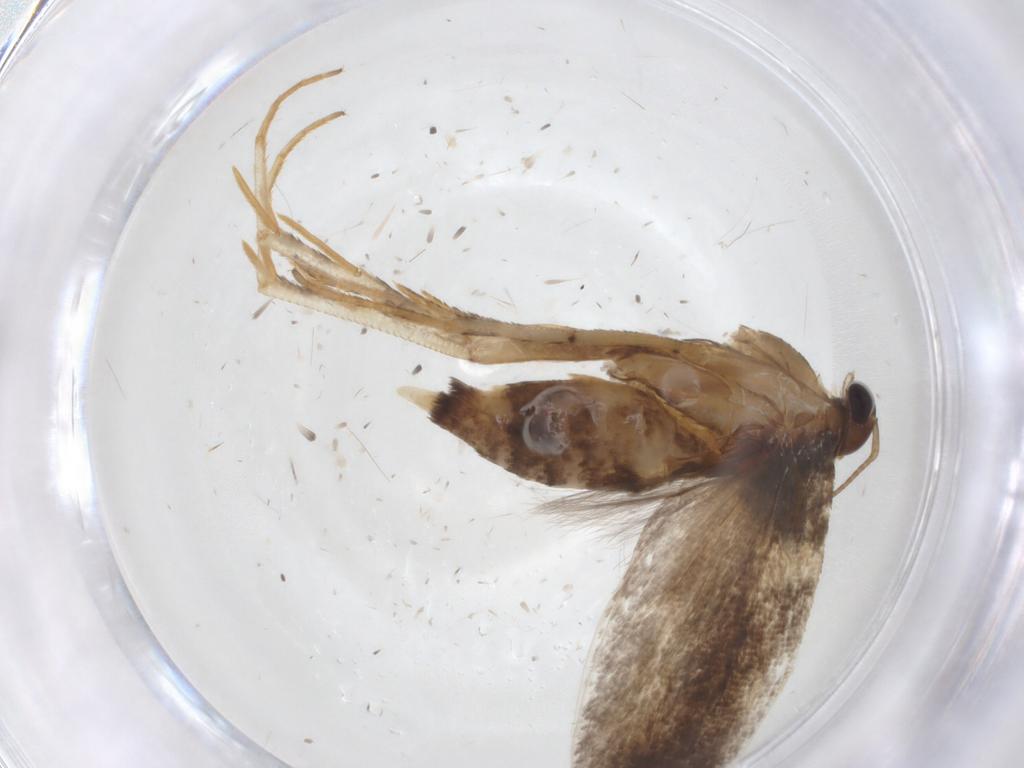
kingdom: Animalia
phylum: Arthropoda
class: Insecta
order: Lepidoptera
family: Gelechiidae
